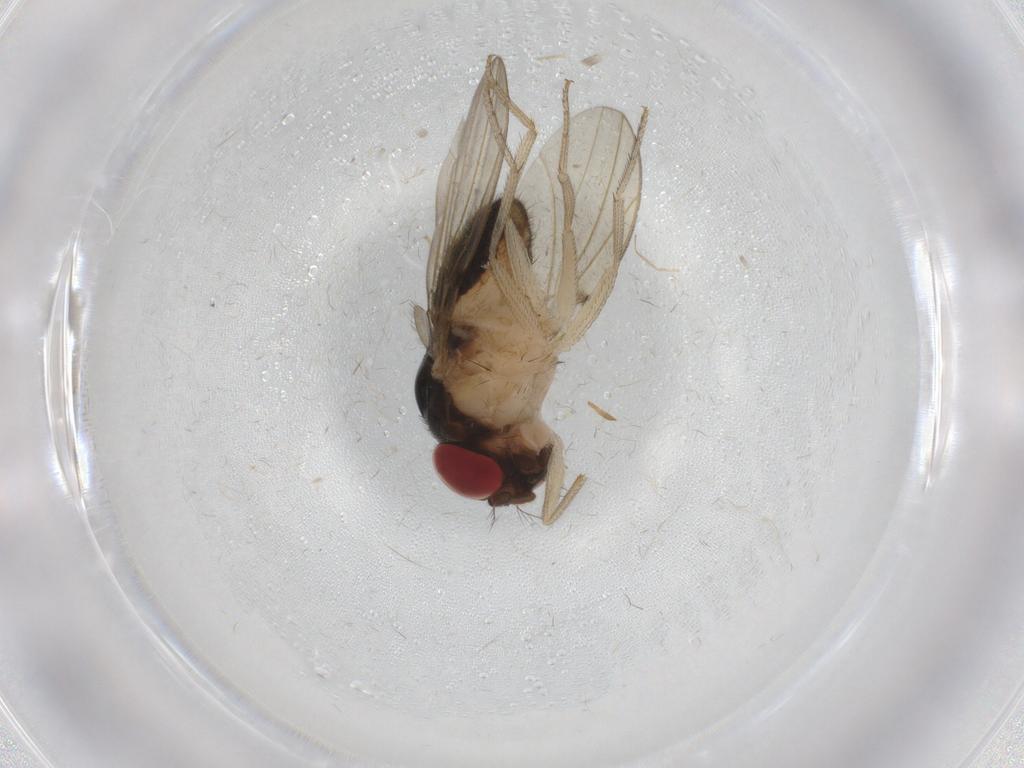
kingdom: Animalia
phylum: Arthropoda
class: Insecta
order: Diptera
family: Drosophilidae
